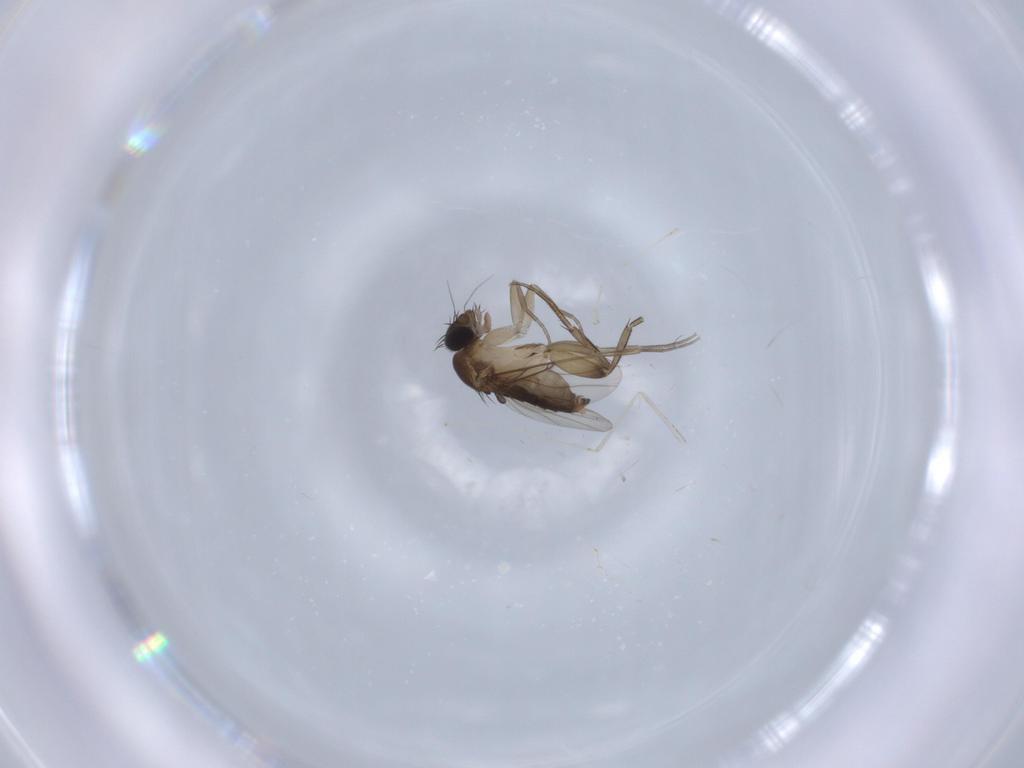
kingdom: Animalia
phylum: Arthropoda
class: Insecta
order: Diptera
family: Phoridae
